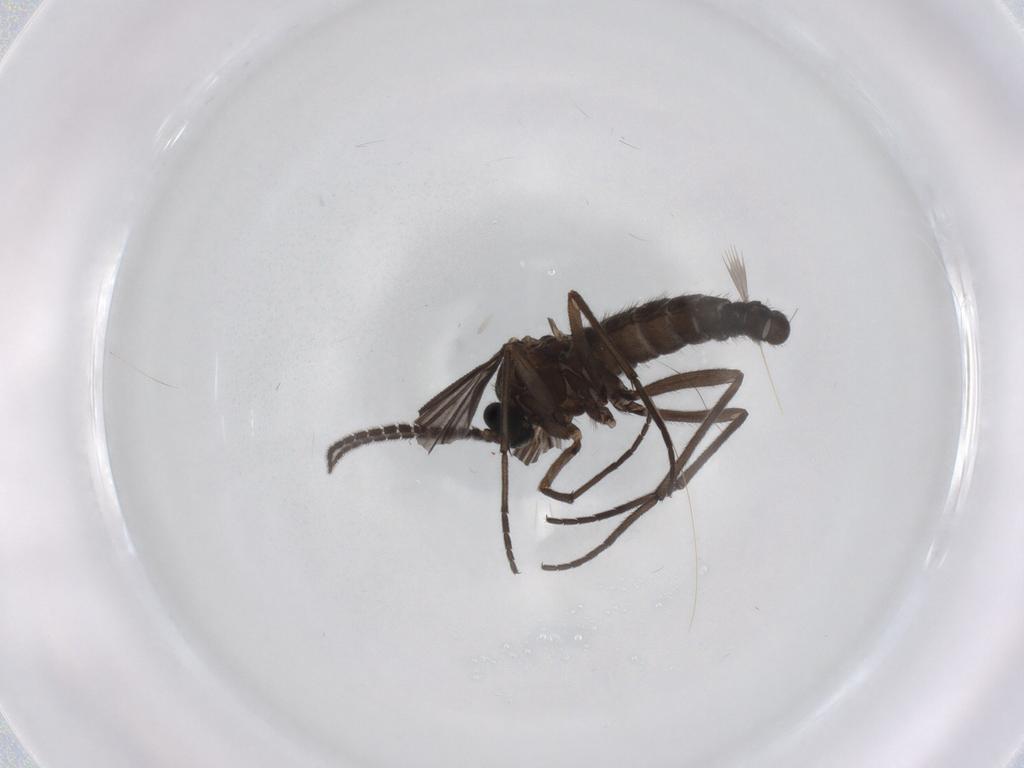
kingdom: Animalia
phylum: Arthropoda
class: Insecta
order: Diptera
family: Sciaridae
